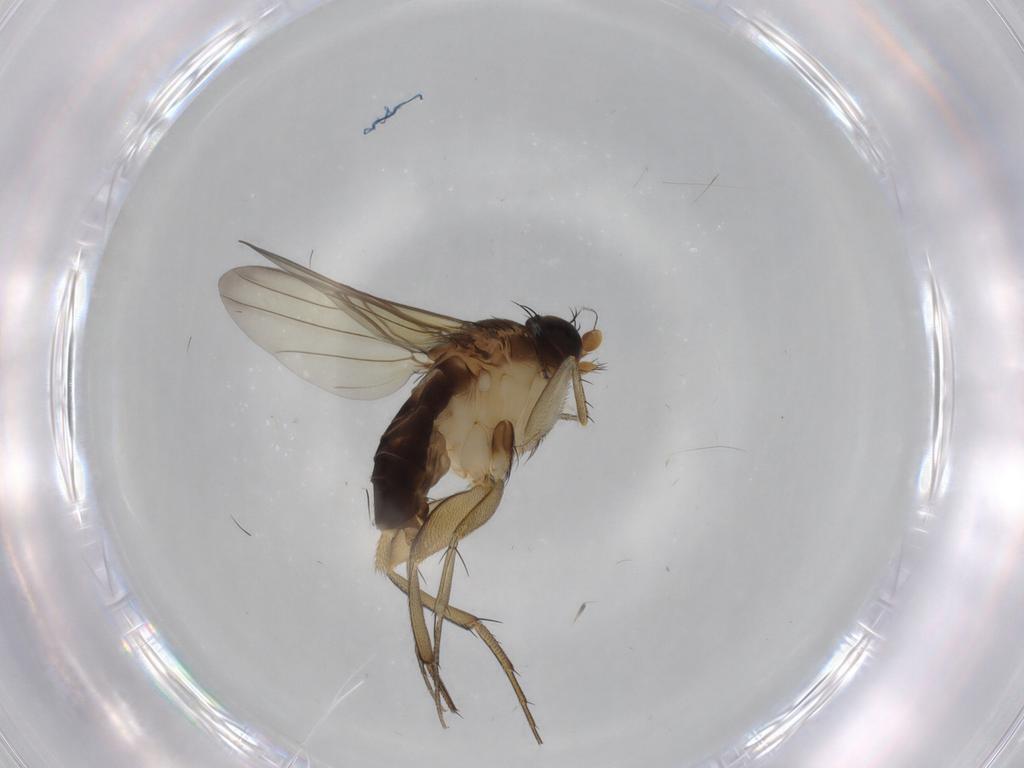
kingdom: Animalia
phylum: Arthropoda
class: Insecta
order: Diptera
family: Phoridae
